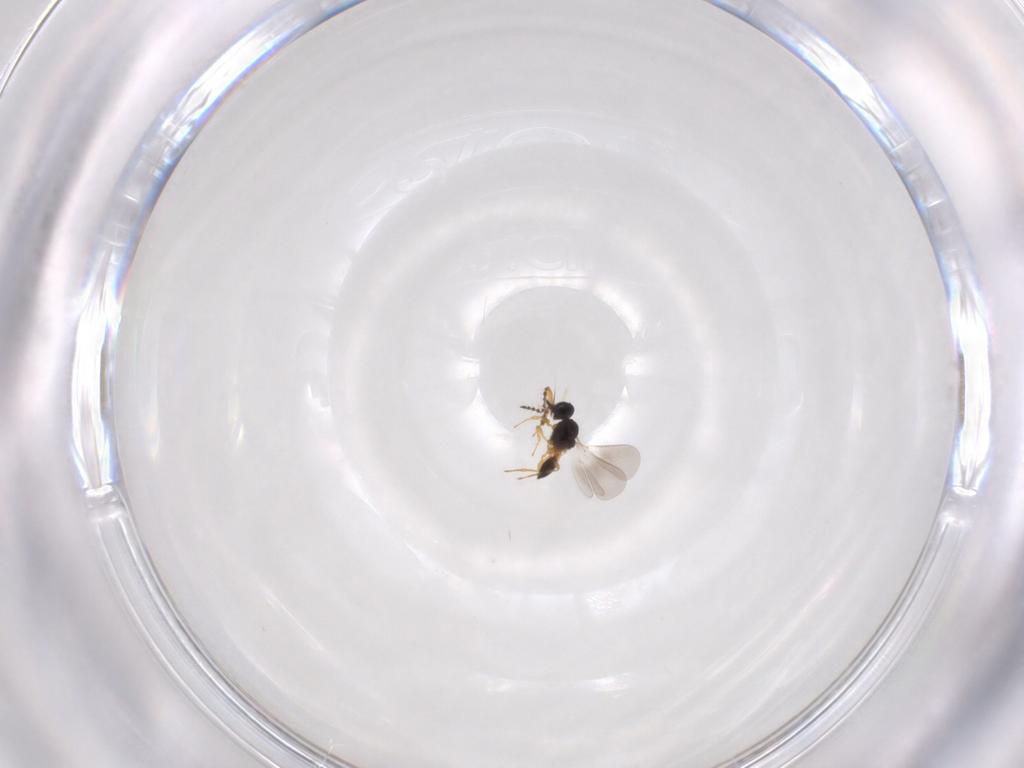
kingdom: Animalia
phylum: Arthropoda
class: Insecta
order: Hymenoptera
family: Platygastridae
